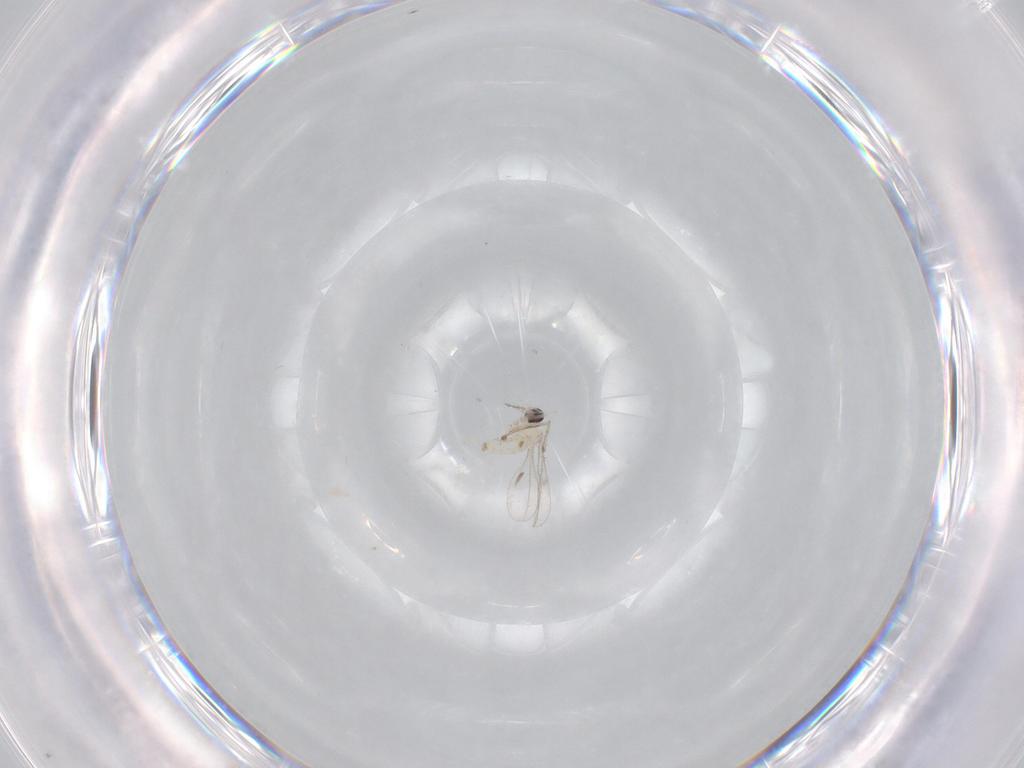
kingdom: Animalia
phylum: Arthropoda
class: Insecta
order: Diptera
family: Cecidomyiidae
